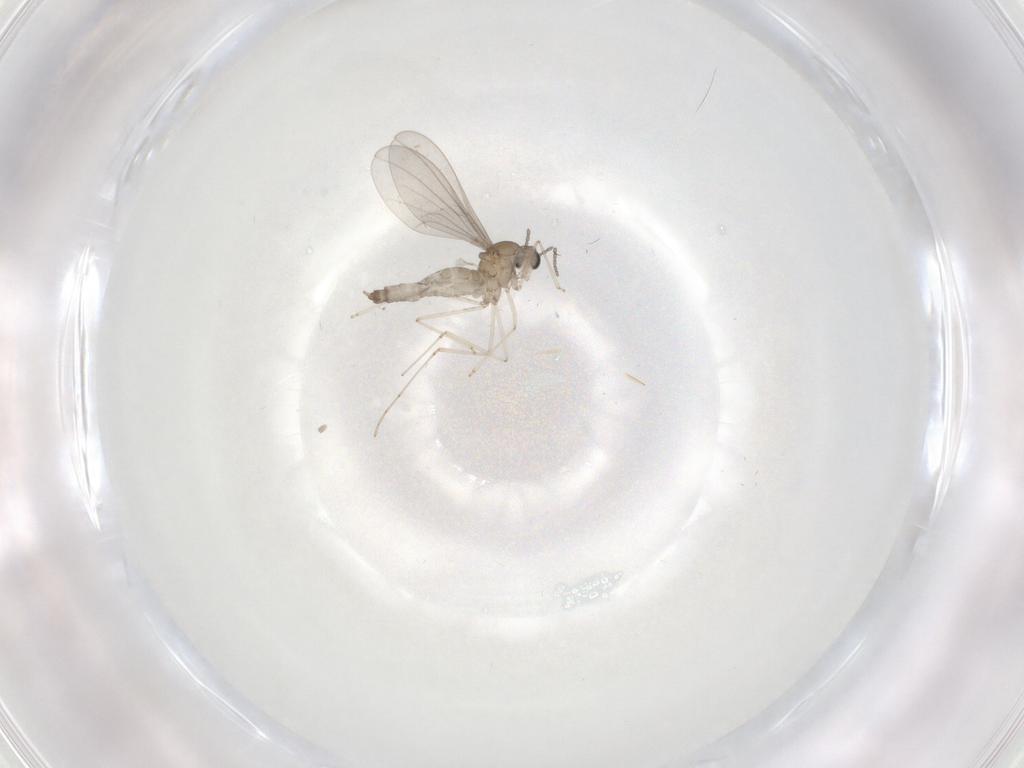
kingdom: Animalia
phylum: Arthropoda
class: Insecta
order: Diptera
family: Cecidomyiidae
